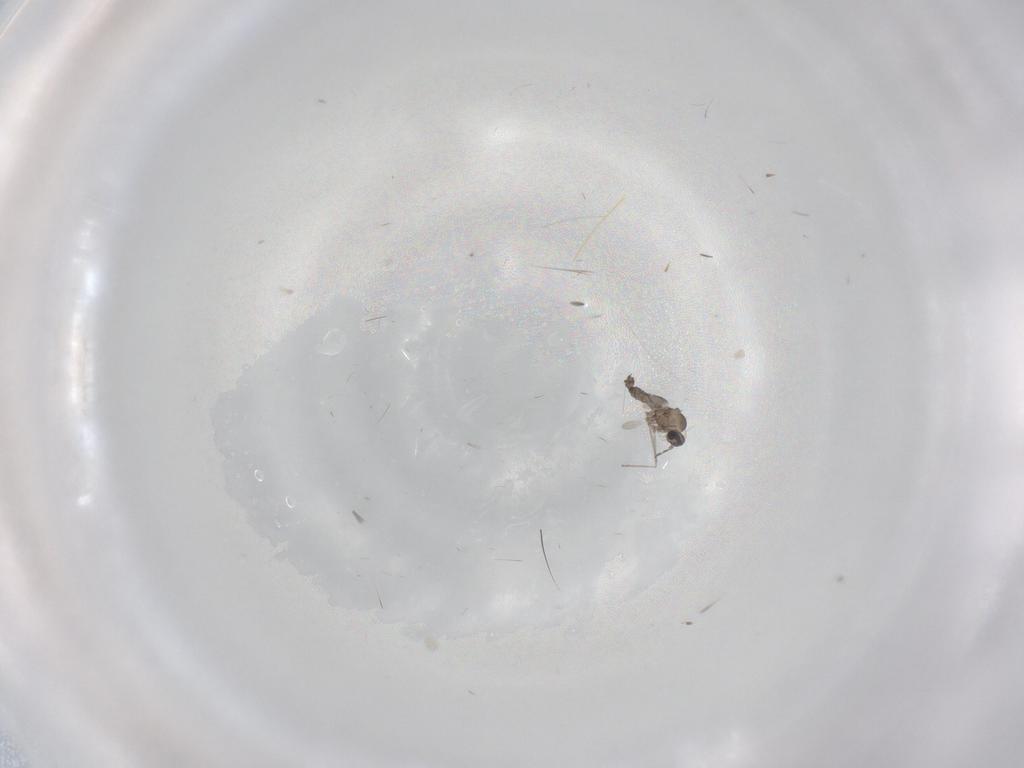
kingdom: Animalia
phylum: Arthropoda
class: Insecta
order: Diptera
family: Cecidomyiidae
